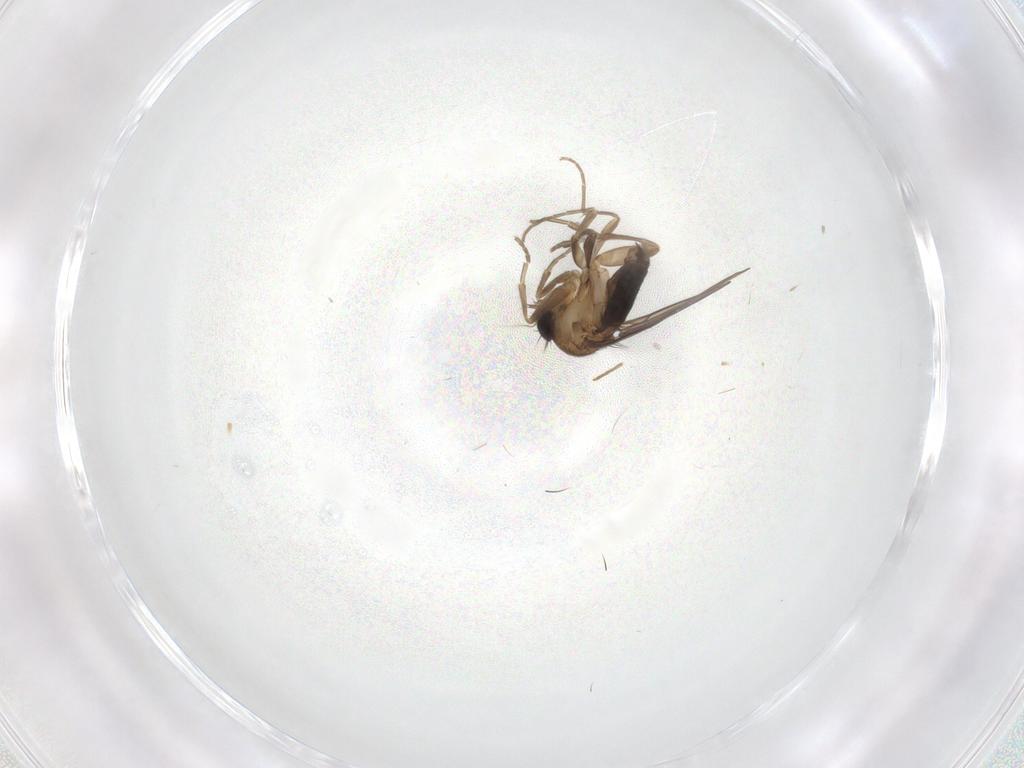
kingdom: Animalia
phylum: Arthropoda
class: Insecta
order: Diptera
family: Phoridae
